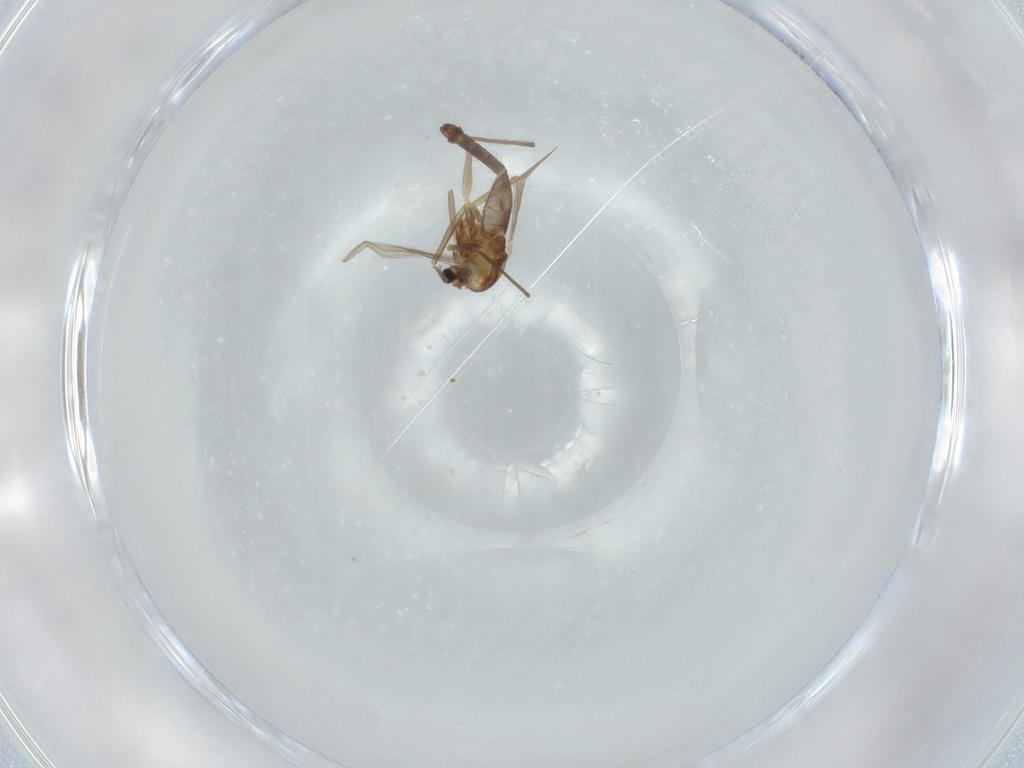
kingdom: Animalia
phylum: Arthropoda
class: Insecta
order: Diptera
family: Chironomidae
